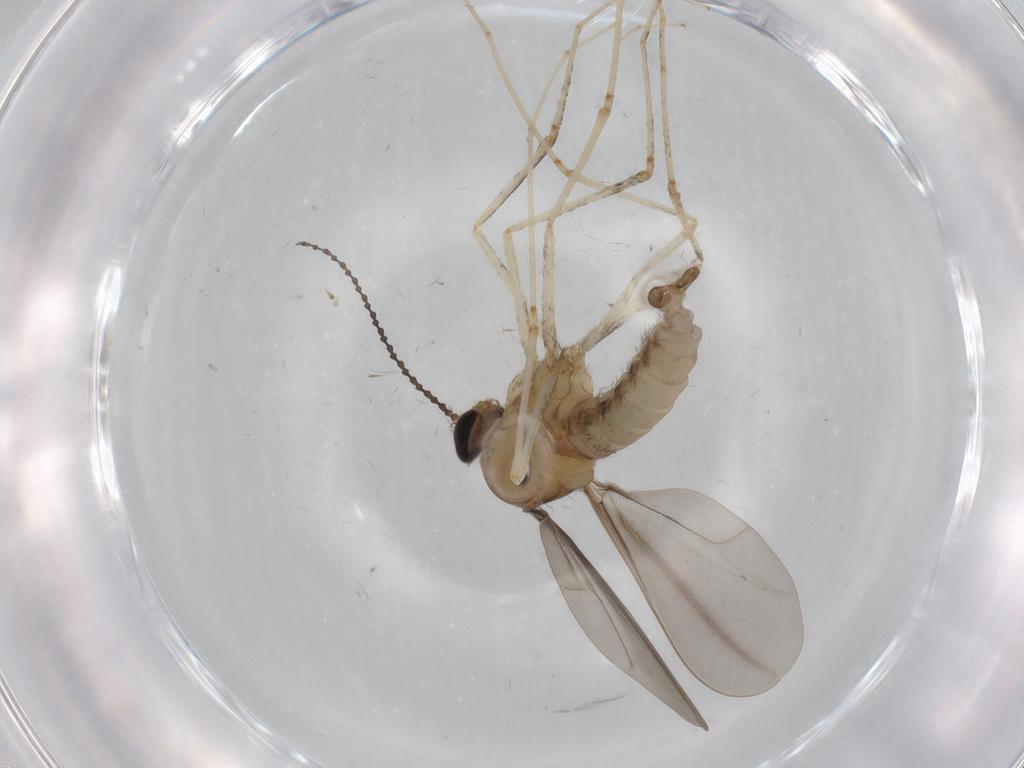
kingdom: Animalia
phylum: Arthropoda
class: Insecta
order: Diptera
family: Cecidomyiidae
